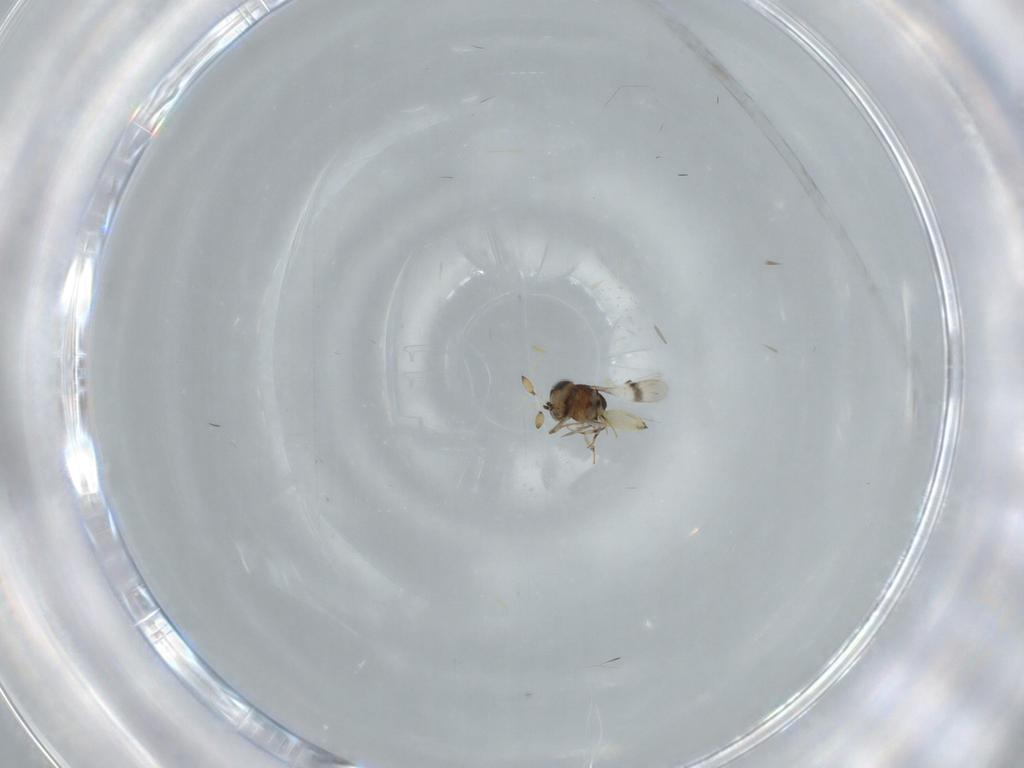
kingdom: Animalia
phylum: Arthropoda
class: Insecta
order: Hymenoptera
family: Scelionidae
